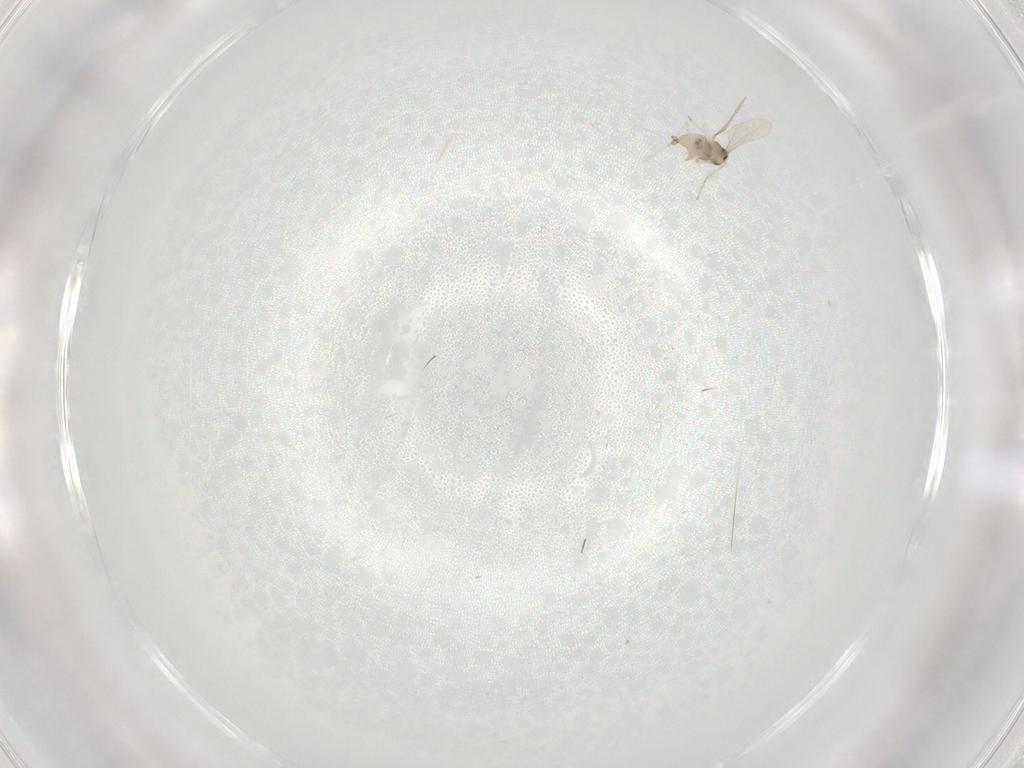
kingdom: Animalia
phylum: Arthropoda
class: Insecta
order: Diptera
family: Cecidomyiidae
